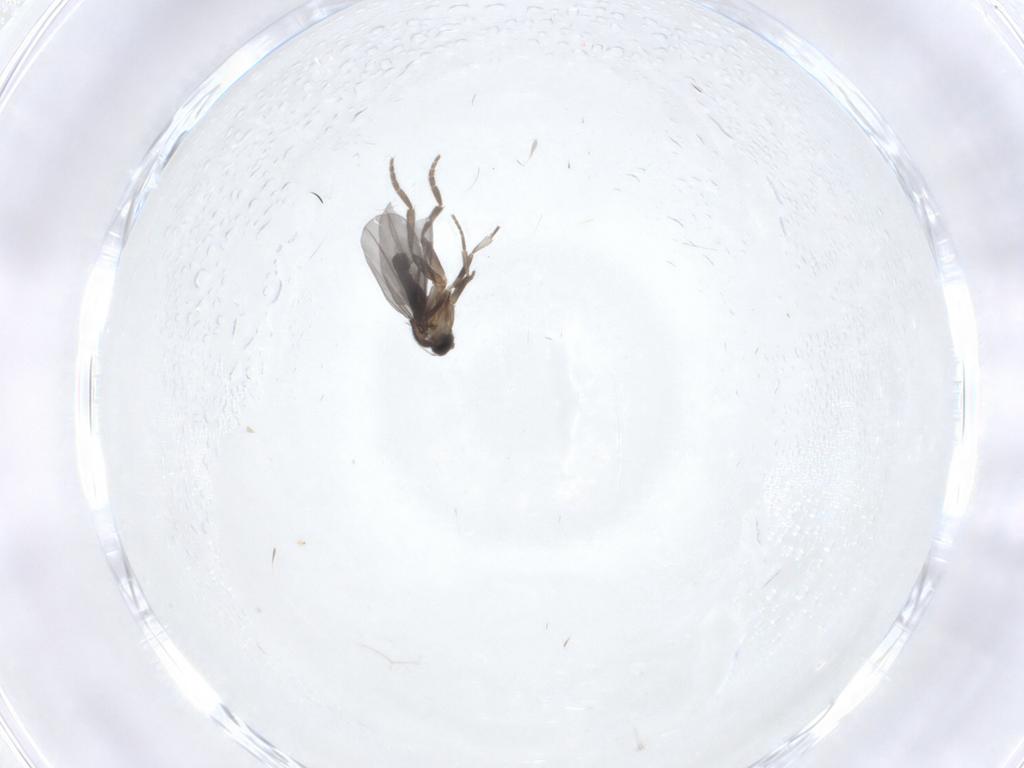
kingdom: Animalia
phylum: Arthropoda
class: Insecta
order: Diptera
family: Phoridae
